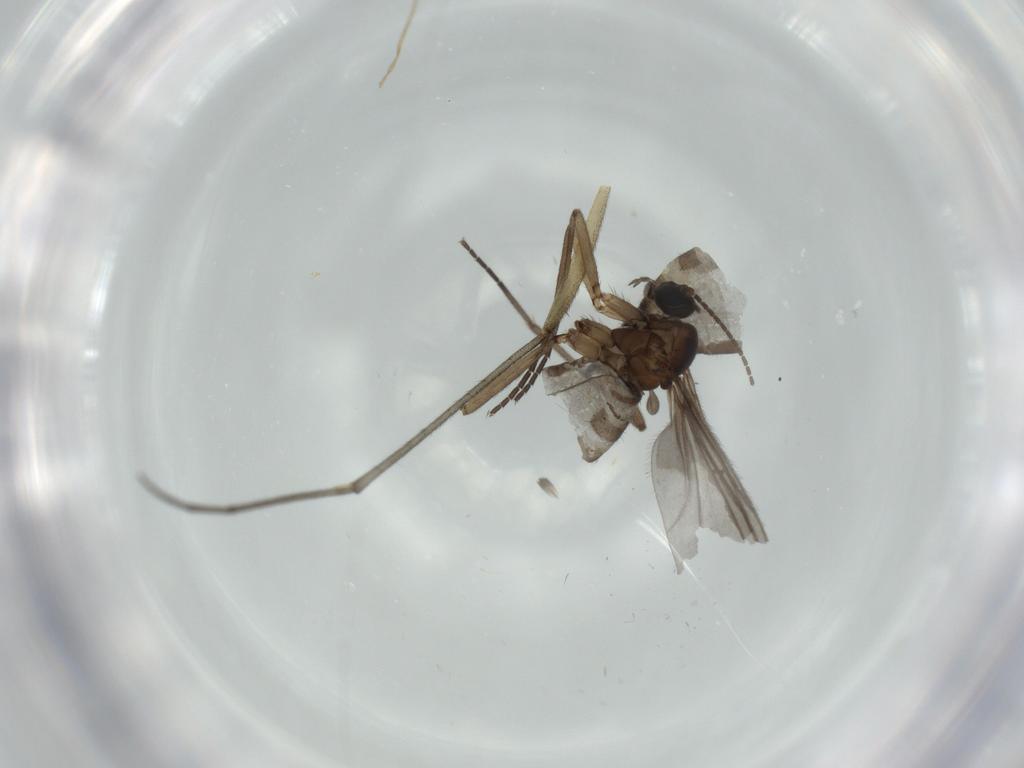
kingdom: Animalia
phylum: Arthropoda
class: Insecta
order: Diptera
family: Sciaridae
